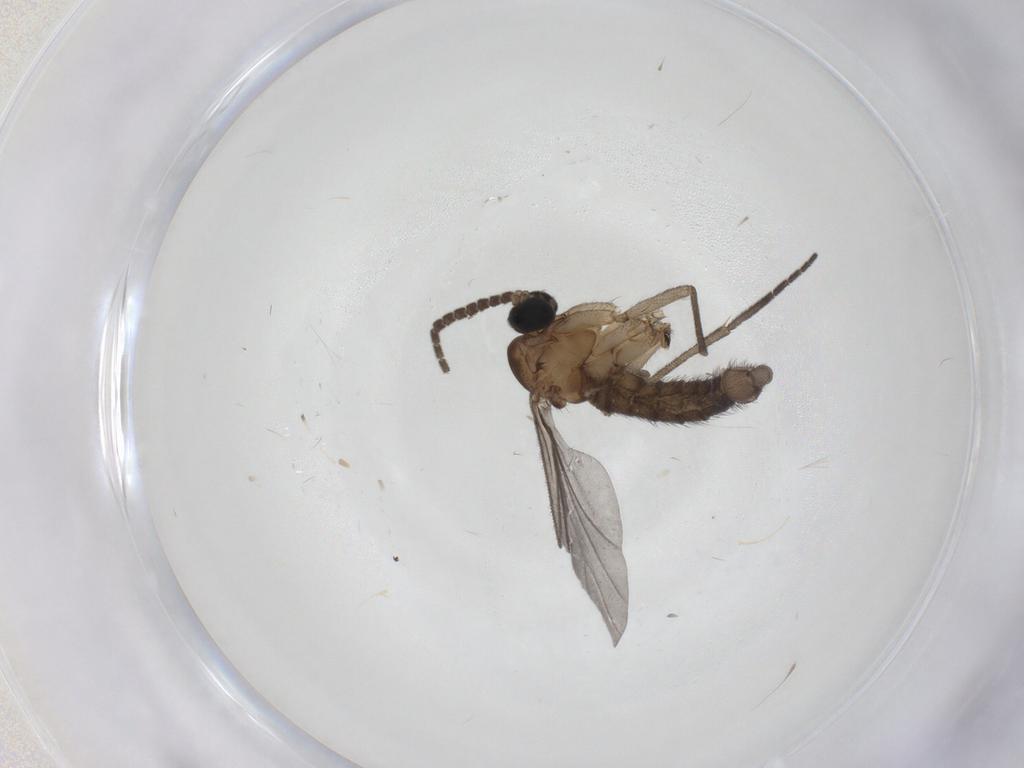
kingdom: Animalia
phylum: Arthropoda
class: Insecta
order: Diptera
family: Sciaridae
